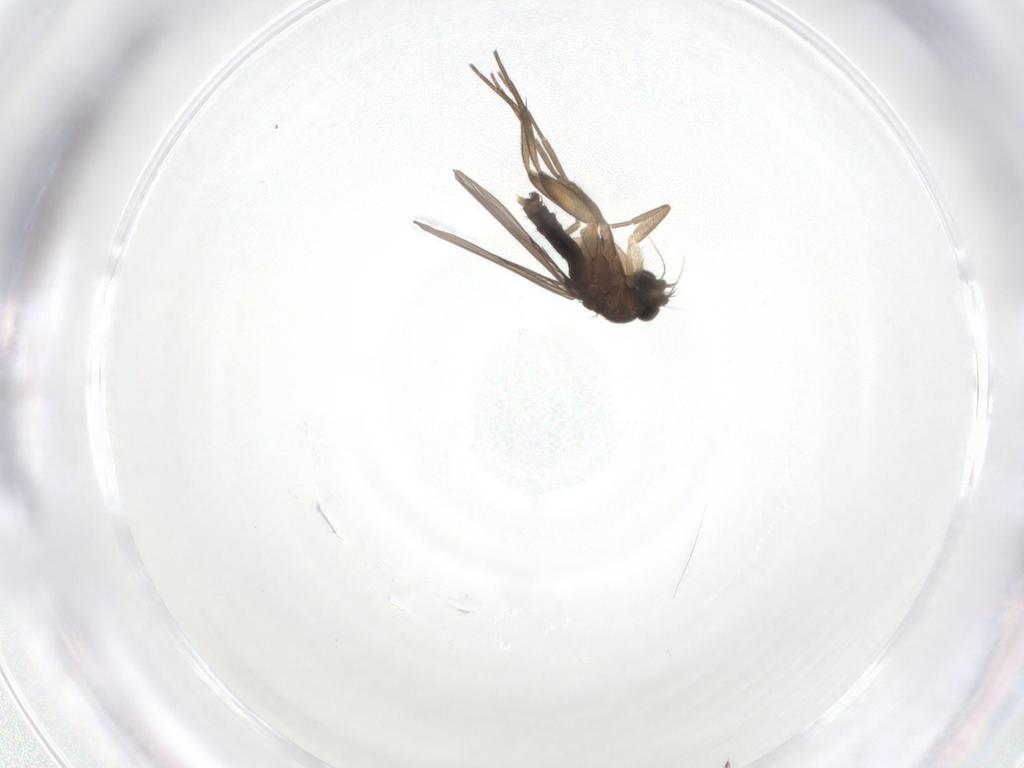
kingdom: Animalia
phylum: Arthropoda
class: Insecta
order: Diptera
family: Phoridae
